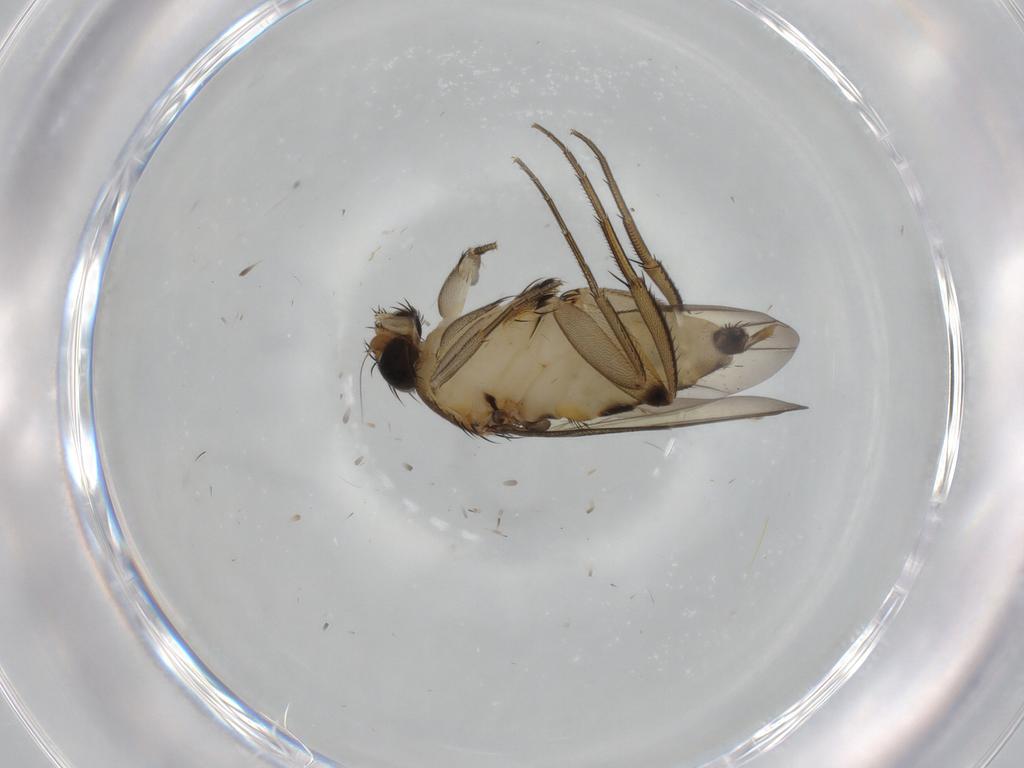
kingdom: Animalia
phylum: Arthropoda
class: Insecta
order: Diptera
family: Phoridae
